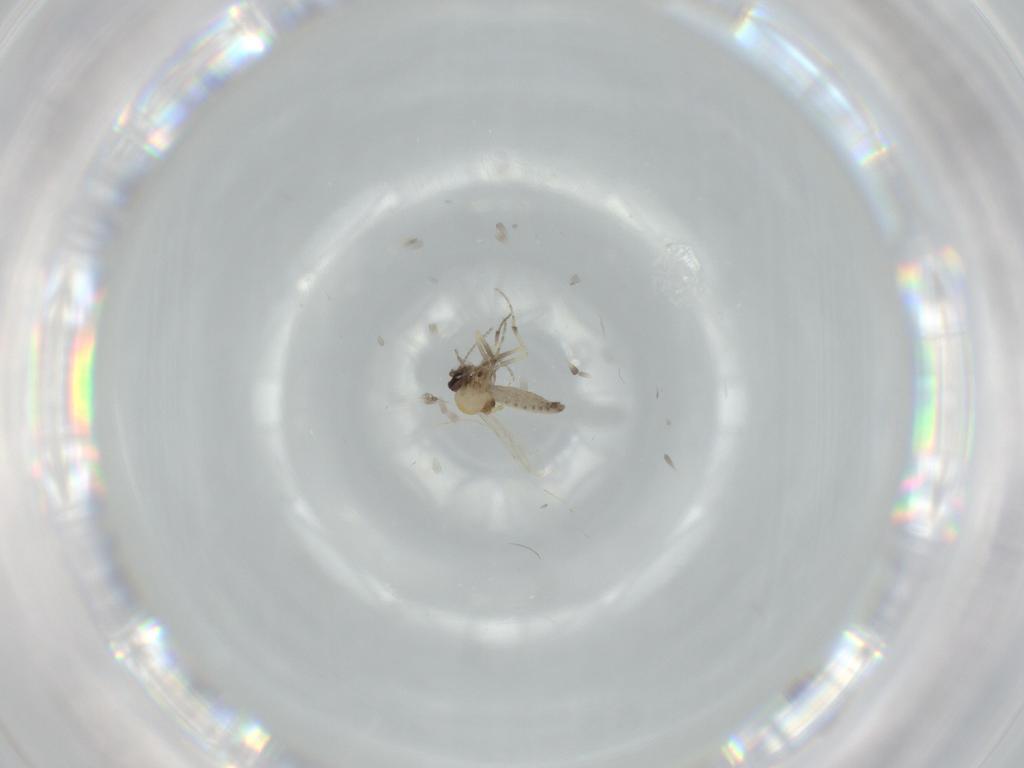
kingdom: Animalia
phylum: Arthropoda
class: Insecta
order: Diptera
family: Ceratopogonidae
